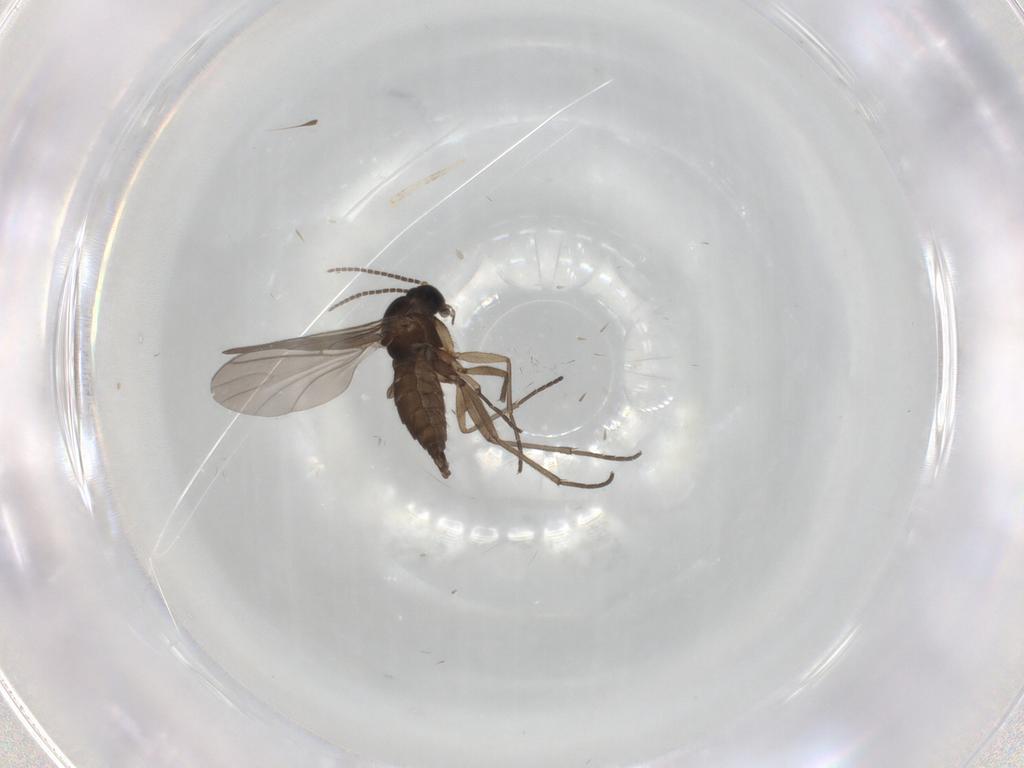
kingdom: Animalia
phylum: Arthropoda
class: Insecta
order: Diptera
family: Sciaridae
